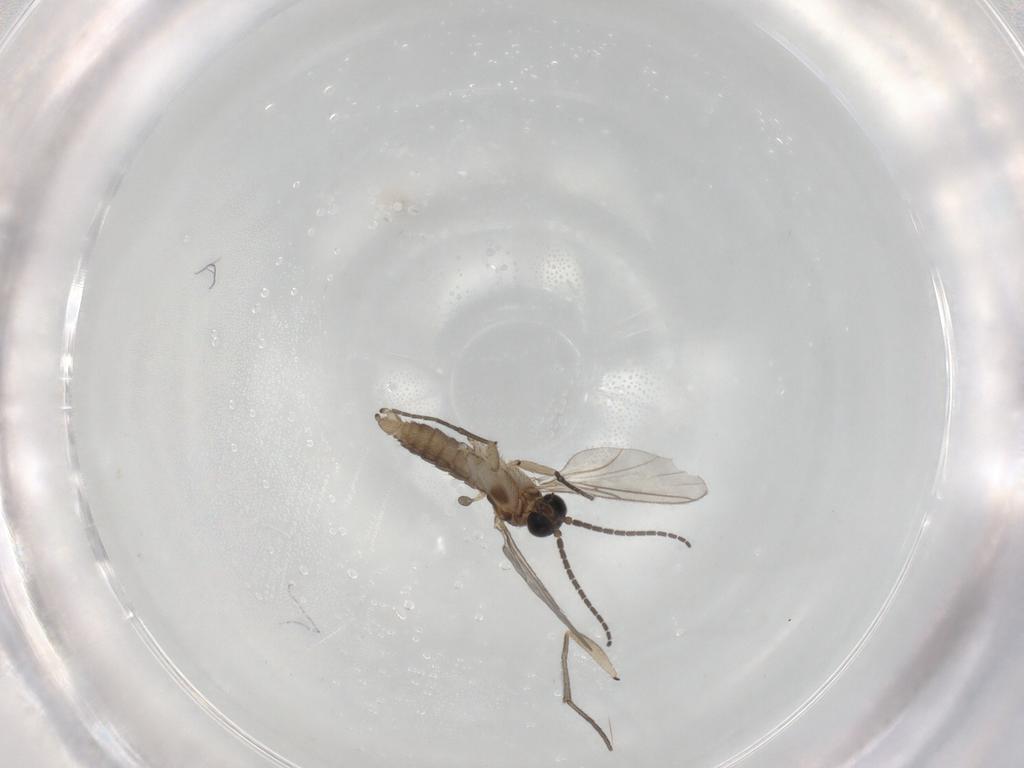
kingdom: Animalia
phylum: Arthropoda
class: Insecta
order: Diptera
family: Sciaridae
